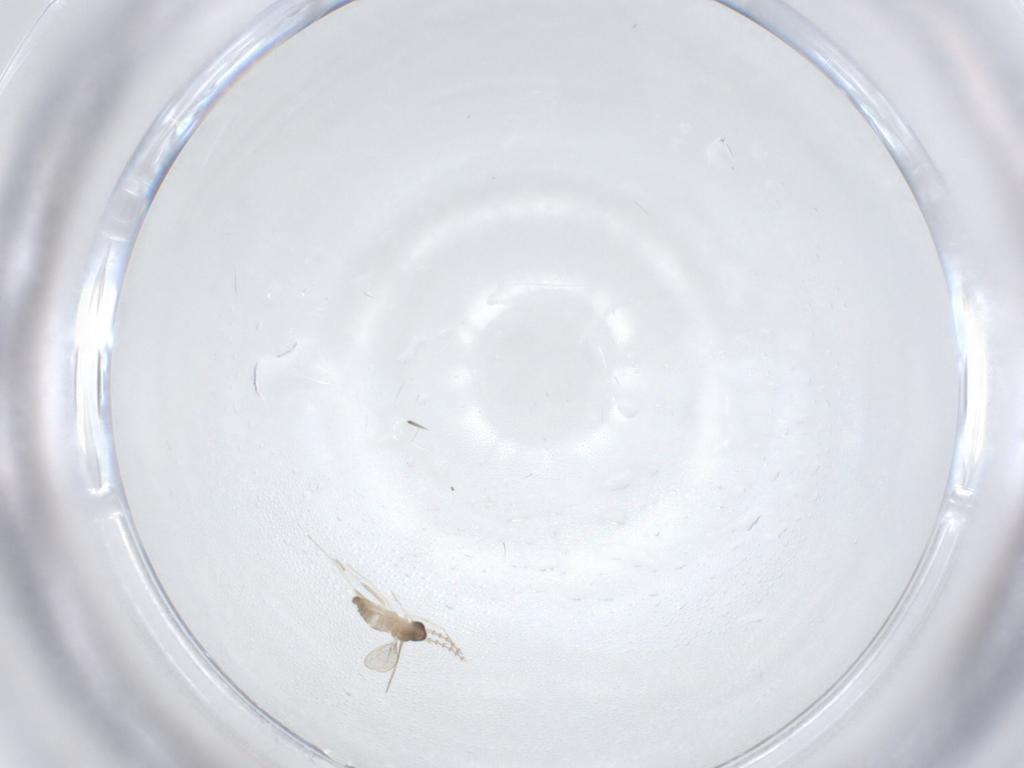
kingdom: Animalia
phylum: Arthropoda
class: Insecta
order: Diptera
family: Cecidomyiidae
